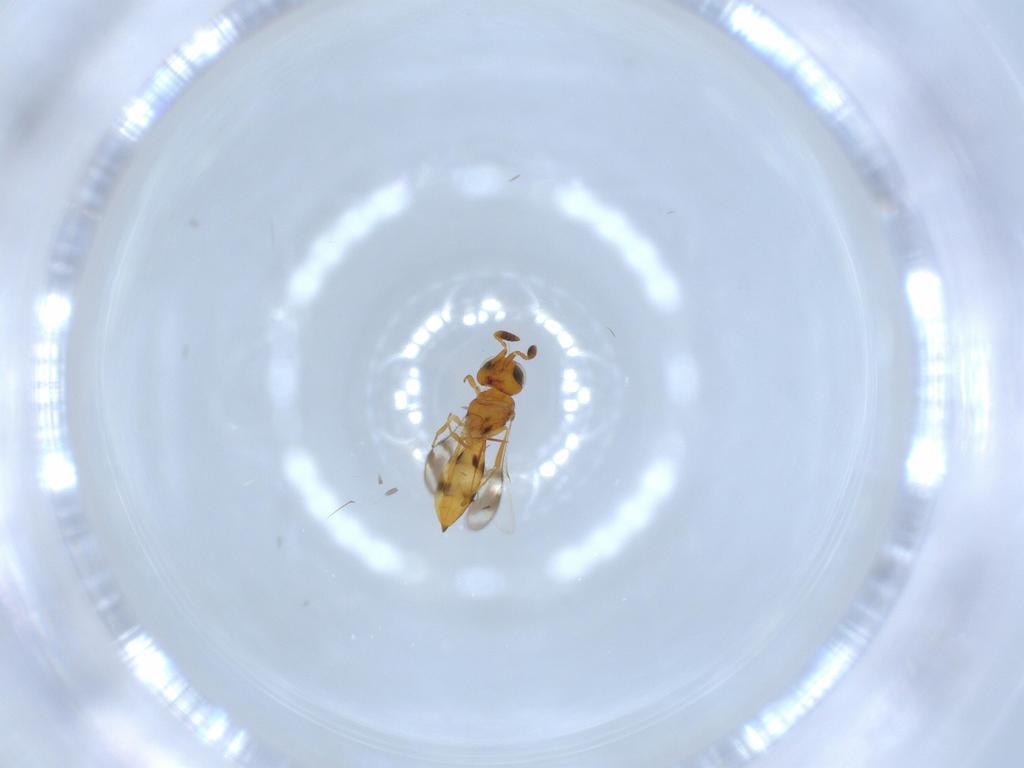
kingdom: Animalia
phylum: Arthropoda
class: Insecta
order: Hymenoptera
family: Scelionidae
